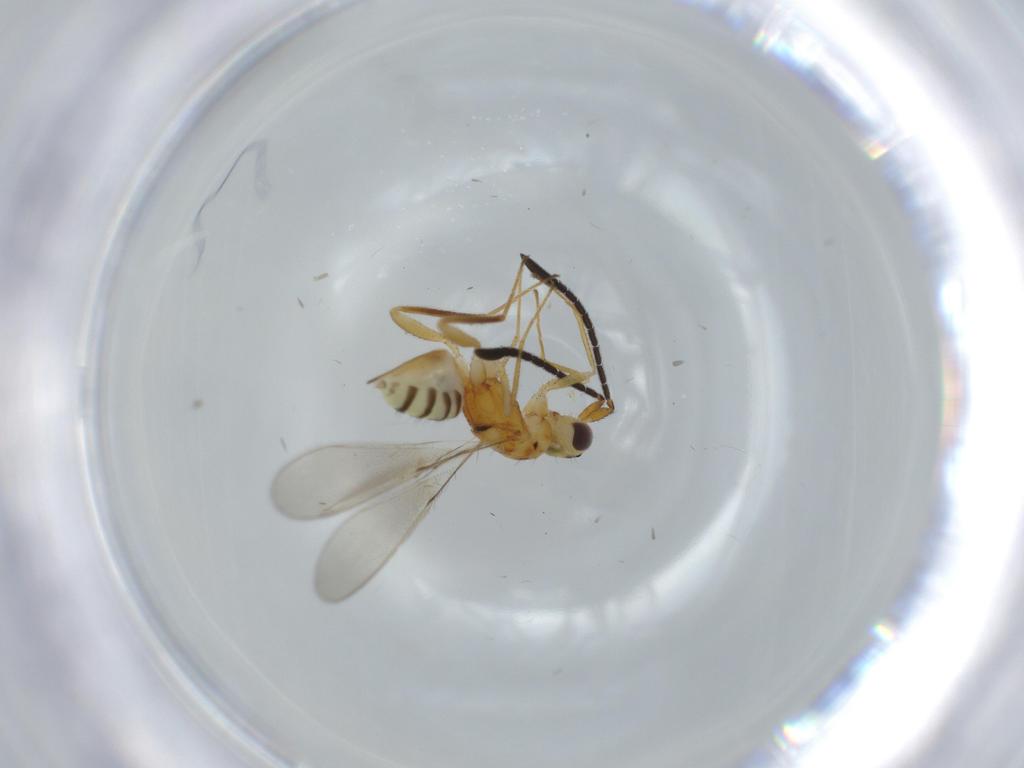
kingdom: Animalia
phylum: Arthropoda
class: Insecta
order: Hymenoptera
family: Mymaridae
